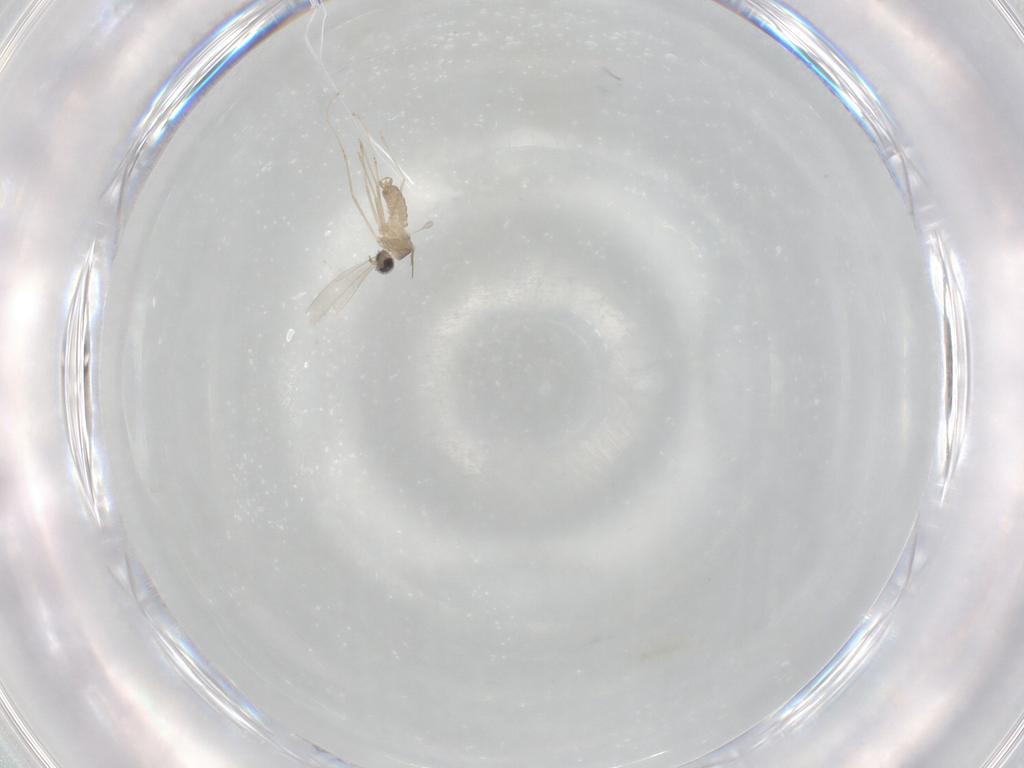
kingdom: Animalia
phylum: Arthropoda
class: Insecta
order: Diptera
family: Cecidomyiidae
